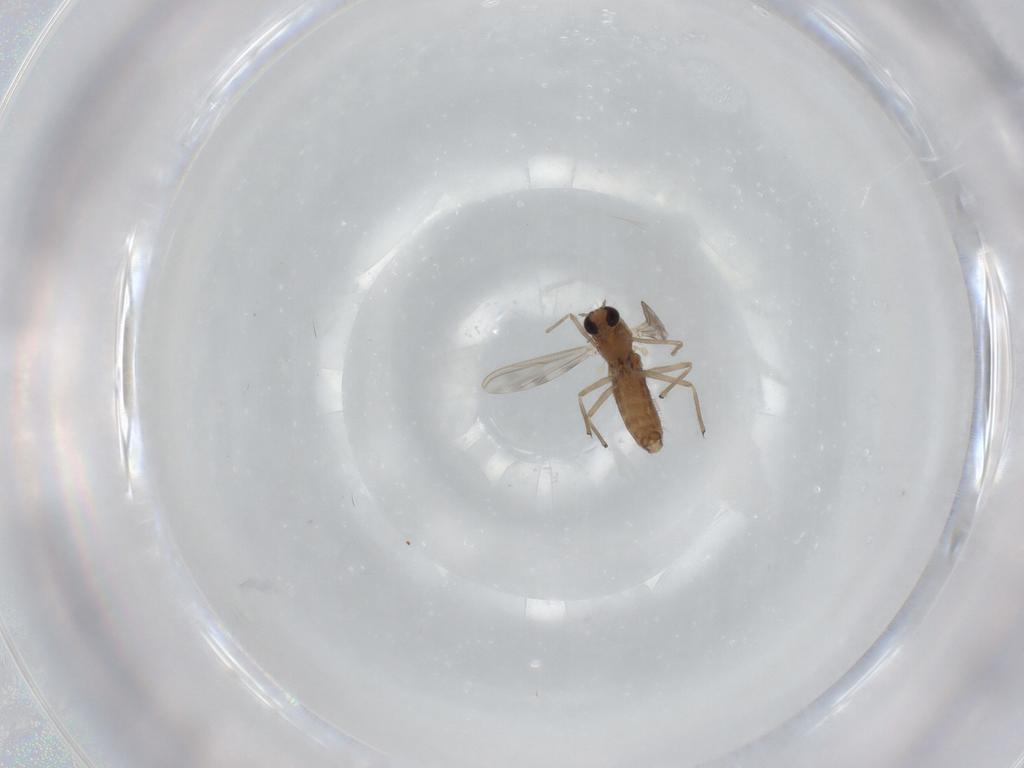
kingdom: Animalia
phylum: Arthropoda
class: Insecta
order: Diptera
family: Chironomidae
